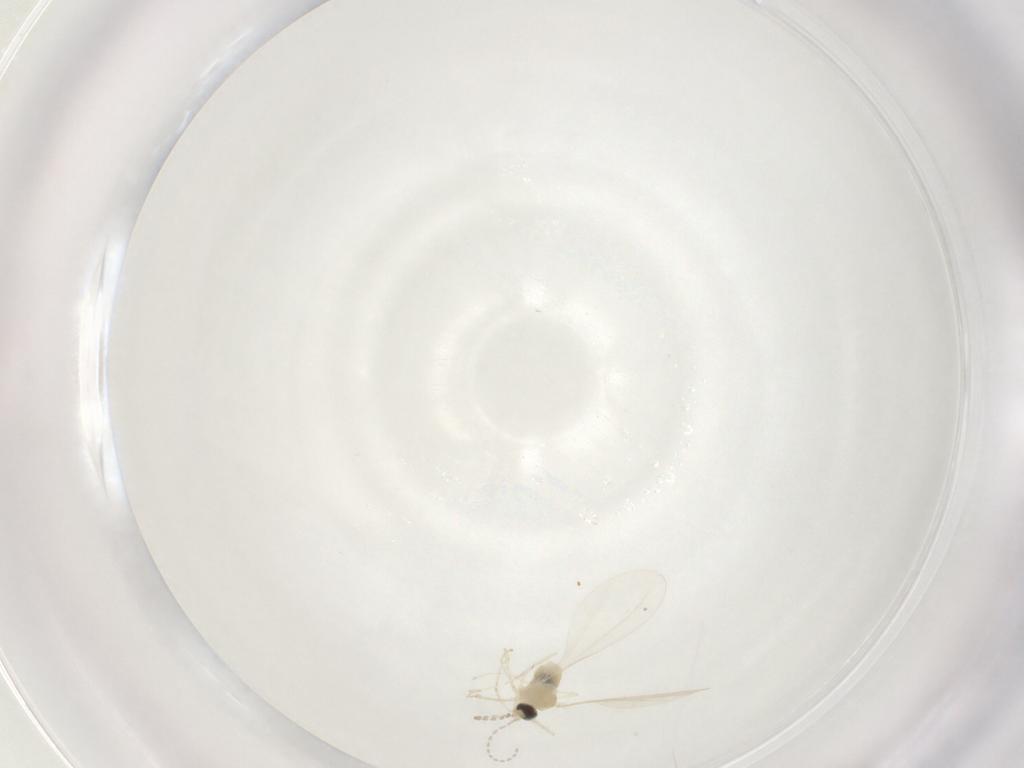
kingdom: Animalia
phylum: Arthropoda
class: Insecta
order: Diptera
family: Cecidomyiidae
